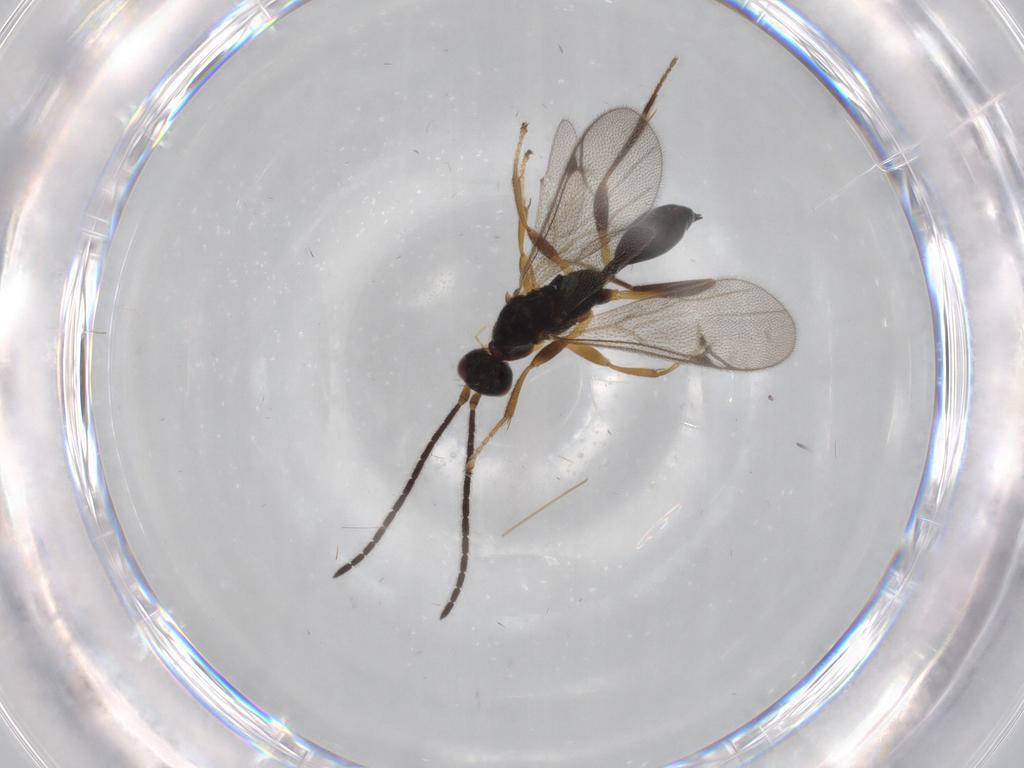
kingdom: Animalia
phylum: Arthropoda
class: Insecta
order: Hymenoptera
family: Proctotrupidae
